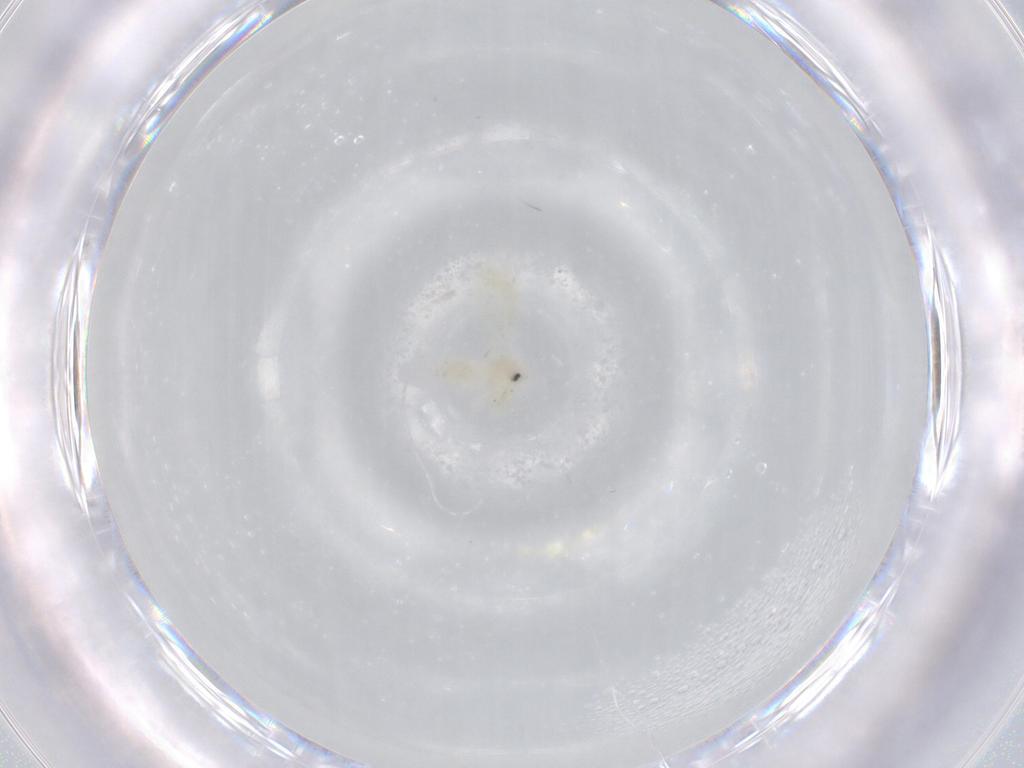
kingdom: Animalia
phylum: Arthropoda
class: Insecta
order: Hemiptera
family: Aleyrodidae
